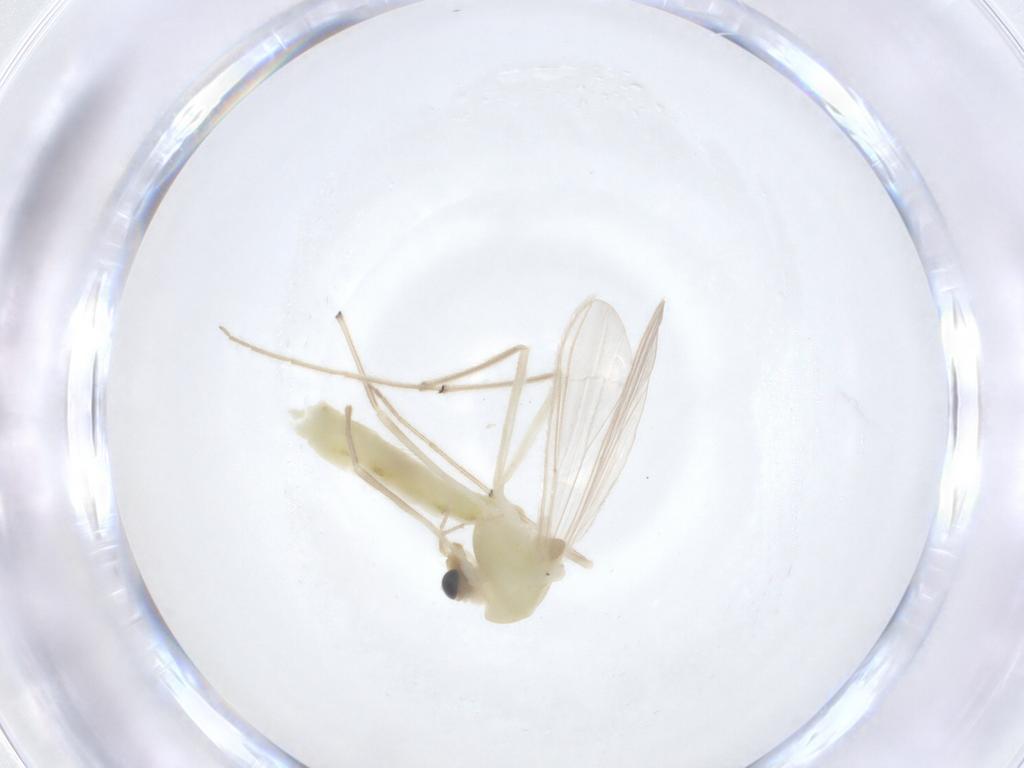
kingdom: Animalia
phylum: Arthropoda
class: Insecta
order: Diptera
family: Chironomidae
